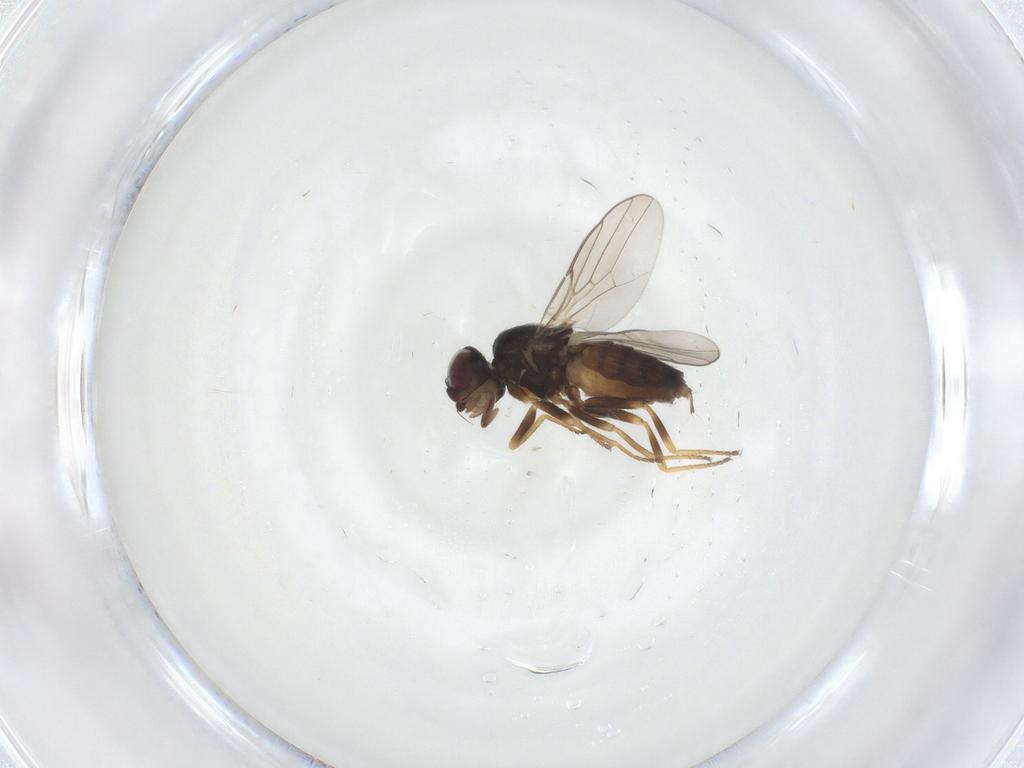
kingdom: Animalia
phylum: Arthropoda
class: Insecta
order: Diptera
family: Chloropidae
